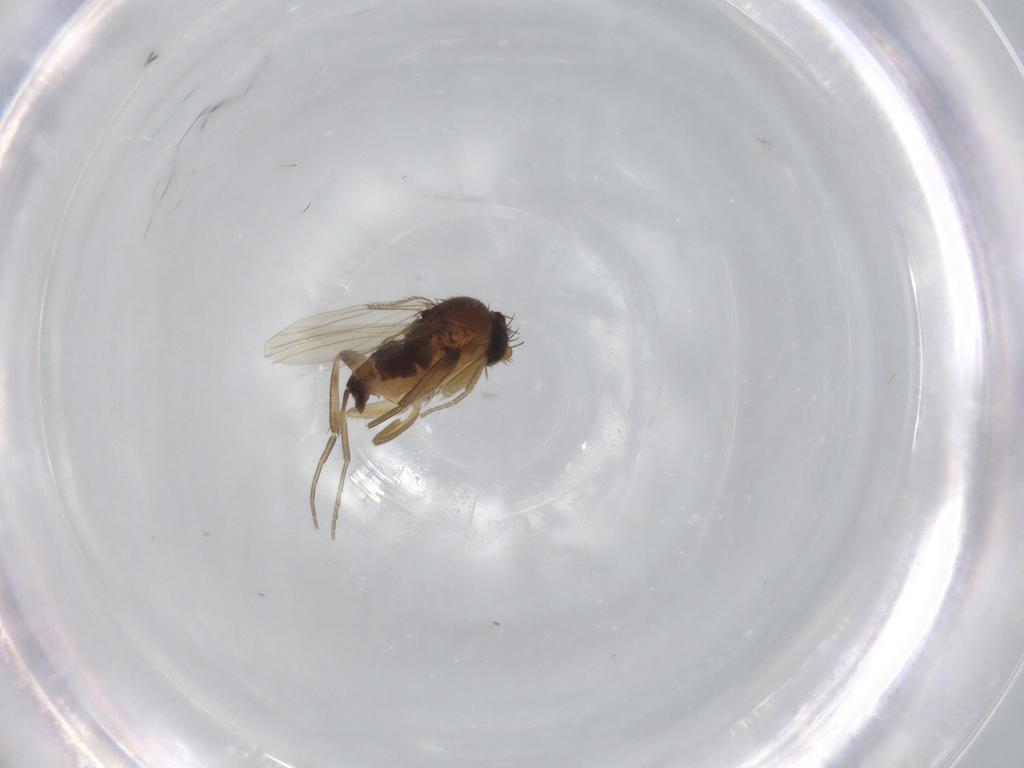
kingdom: Animalia
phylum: Arthropoda
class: Insecta
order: Diptera
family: Phoridae
